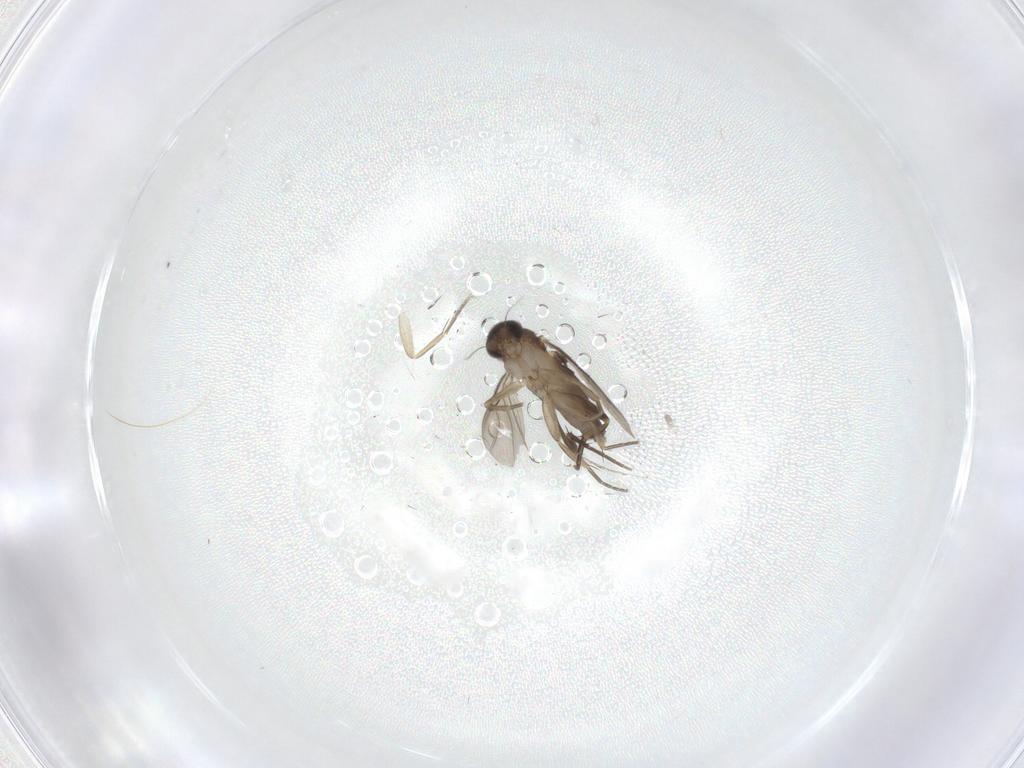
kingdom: Animalia
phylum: Arthropoda
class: Insecta
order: Diptera
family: Phoridae
